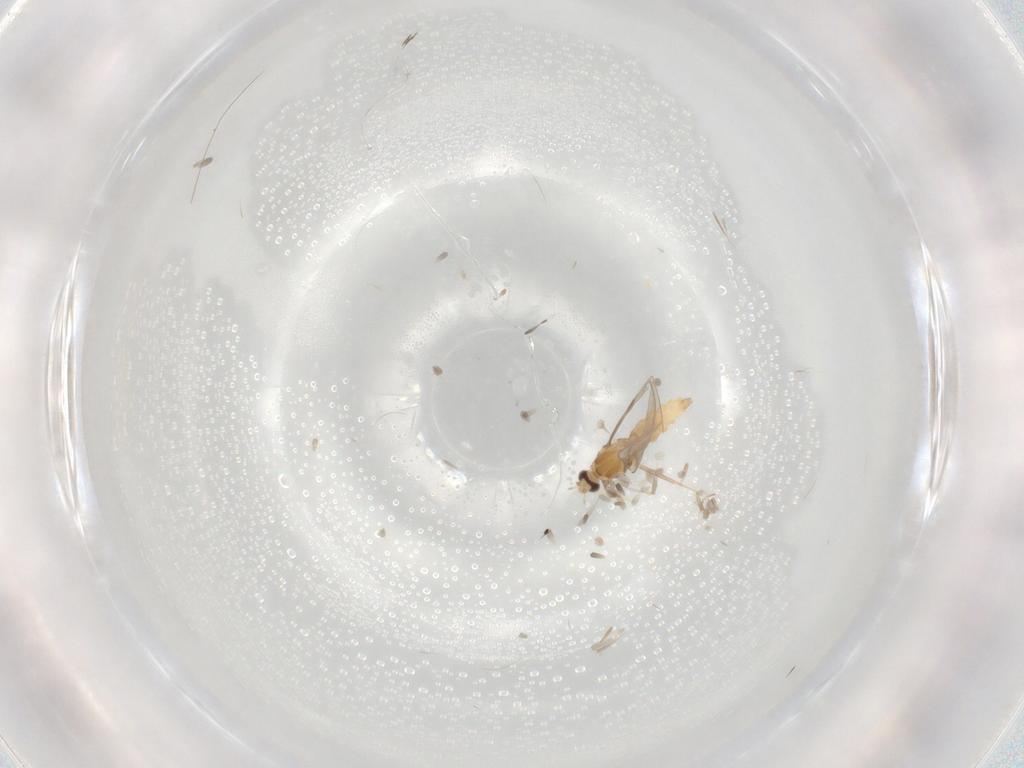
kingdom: Animalia
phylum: Arthropoda
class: Insecta
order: Diptera
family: Cecidomyiidae
